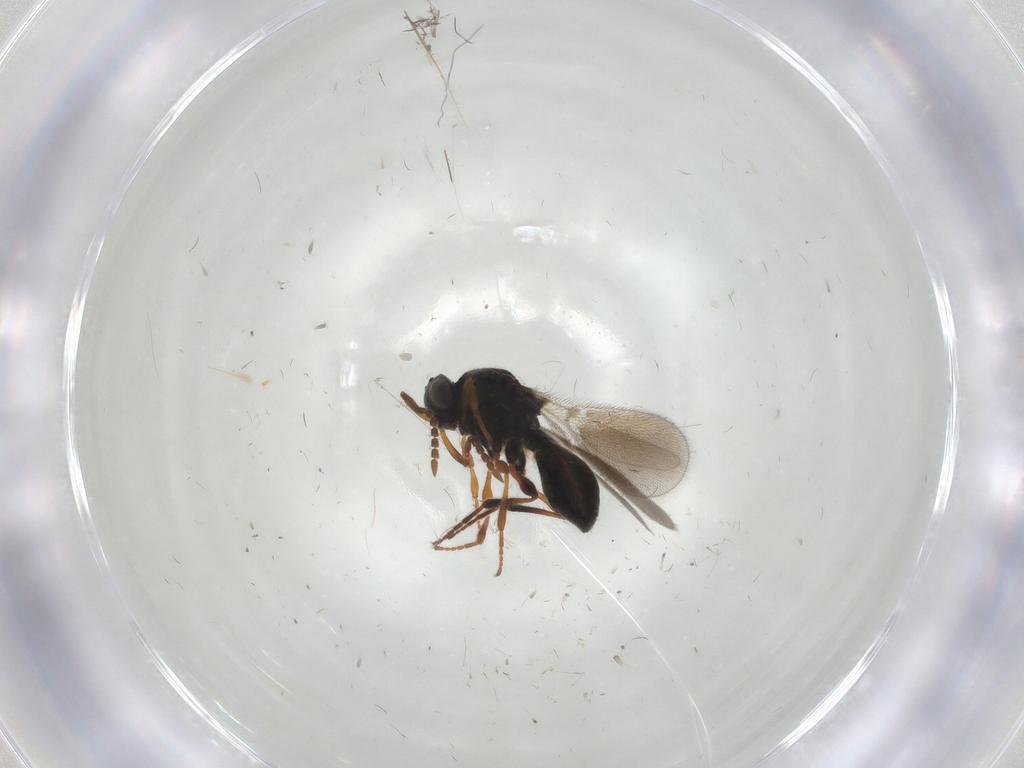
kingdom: Animalia
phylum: Arthropoda
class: Insecta
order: Hymenoptera
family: Platygastridae
